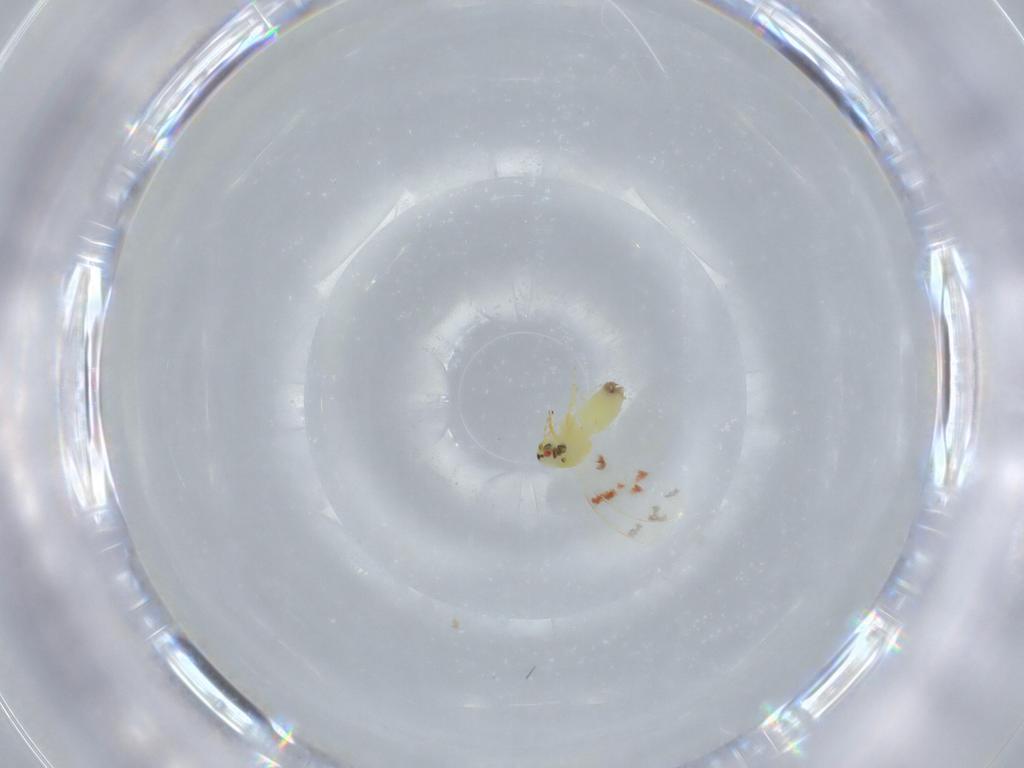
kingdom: Animalia
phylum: Arthropoda
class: Insecta
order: Hemiptera
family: Aleyrodidae
